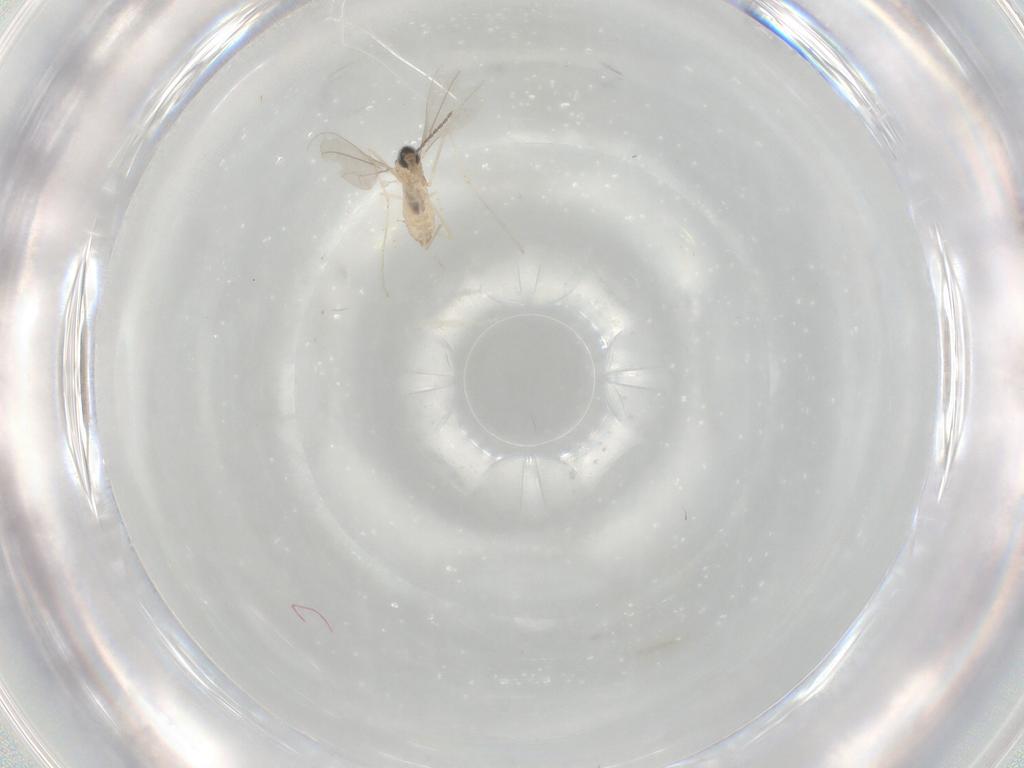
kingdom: Animalia
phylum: Arthropoda
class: Insecta
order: Diptera
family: Cecidomyiidae
